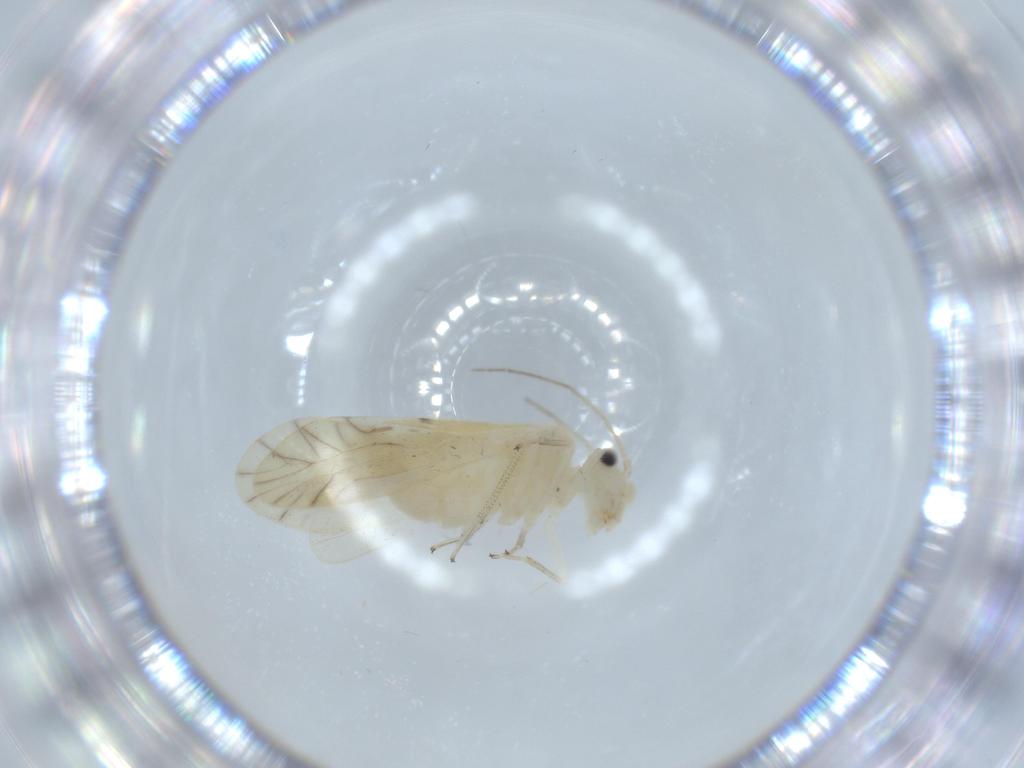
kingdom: Animalia
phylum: Arthropoda
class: Insecta
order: Psocodea
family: Caeciliusidae
